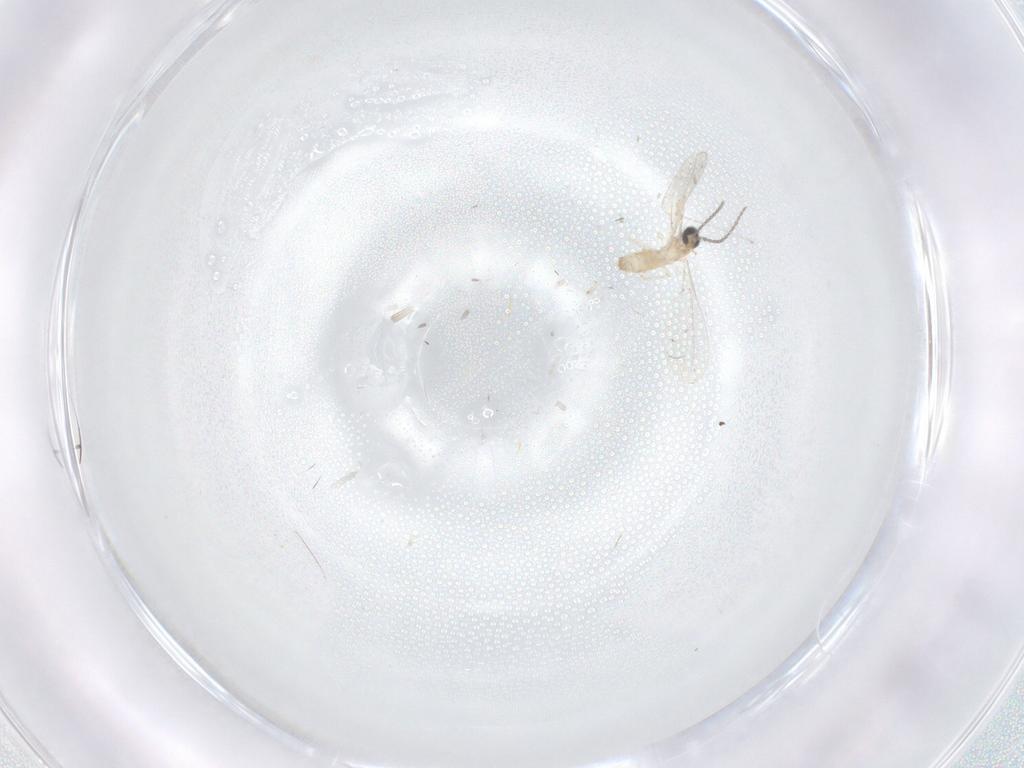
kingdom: Animalia
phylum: Arthropoda
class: Insecta
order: Diptera
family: Cecidomyiidae
